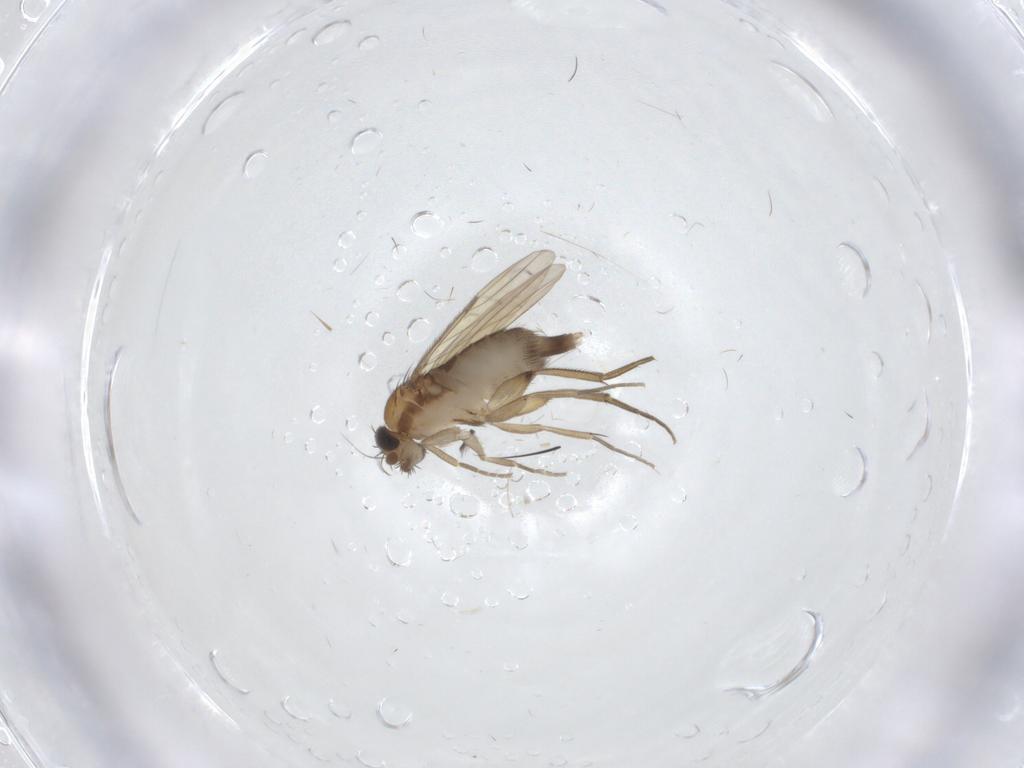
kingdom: Animalia
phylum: Arthropoda
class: Insecta
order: Diptera
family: Phoridae
